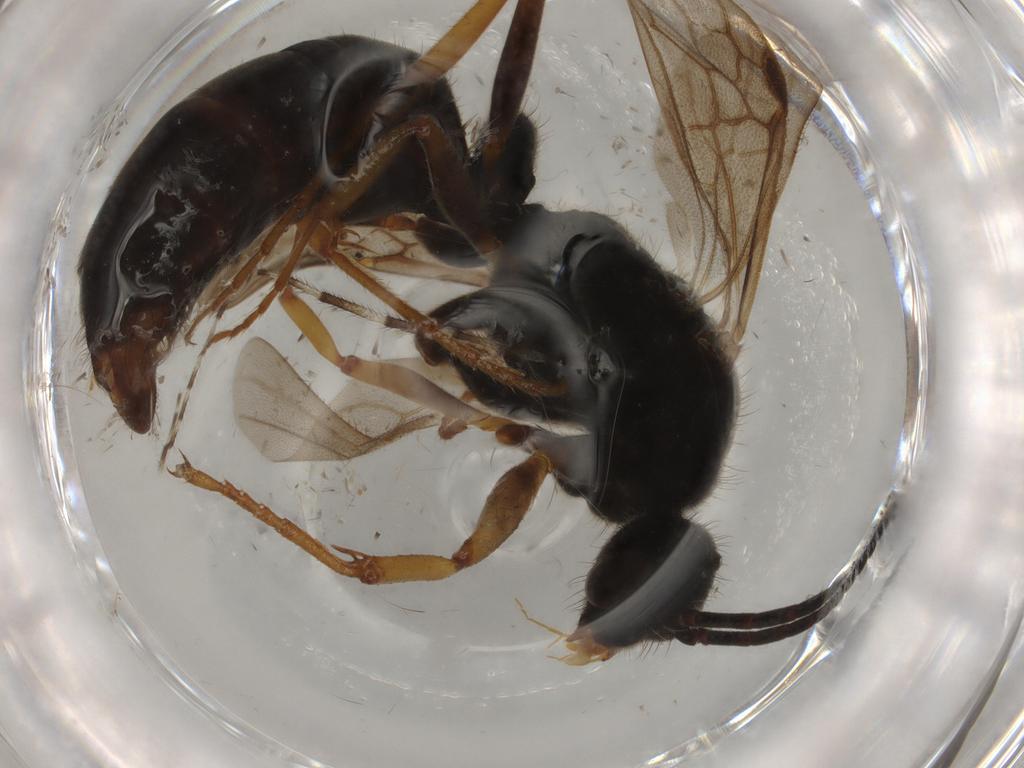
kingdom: Animalia
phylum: Arthropoda
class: Insecta
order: Hymenoptera
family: Formicidae
